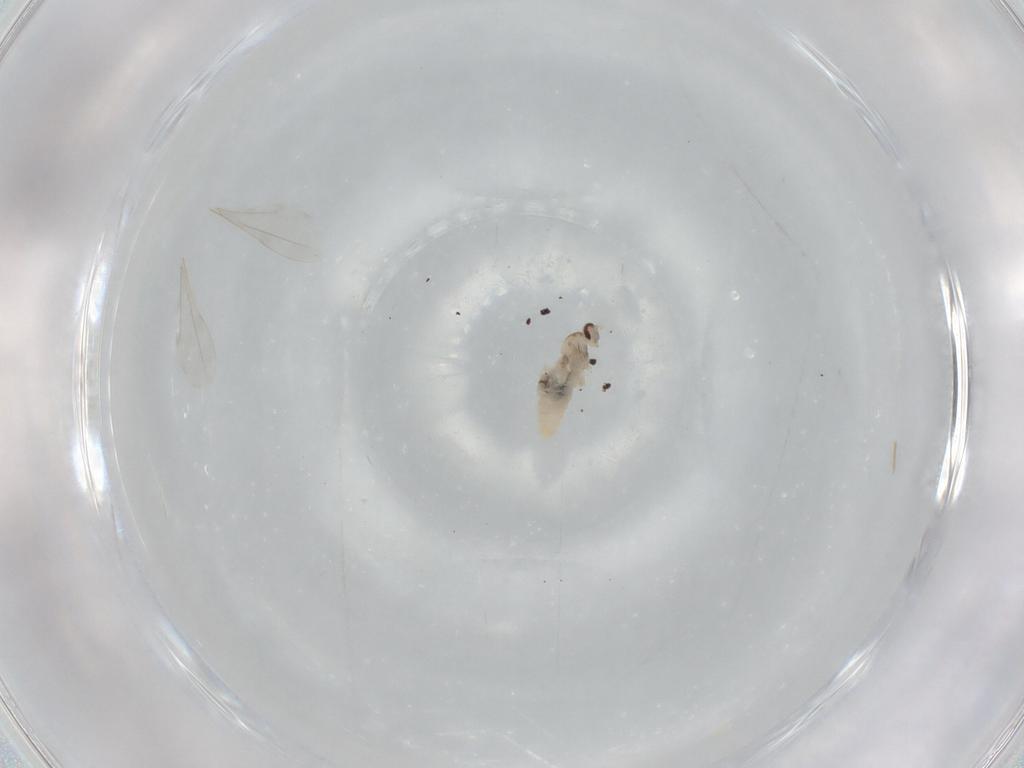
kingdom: Animalia
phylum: Arthropoda
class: Insecta
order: Diptera
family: Cecidomyiidae
